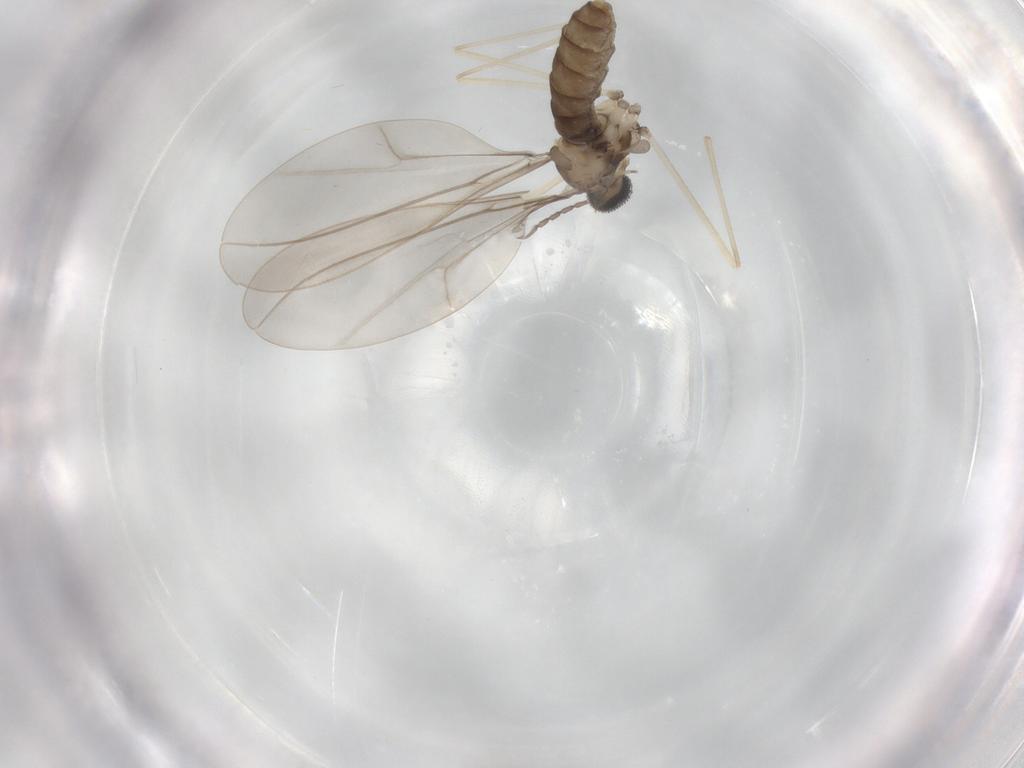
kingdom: Animalia
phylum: Arthropoda
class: Insecta
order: Diptera
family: Cecidomyiidae
